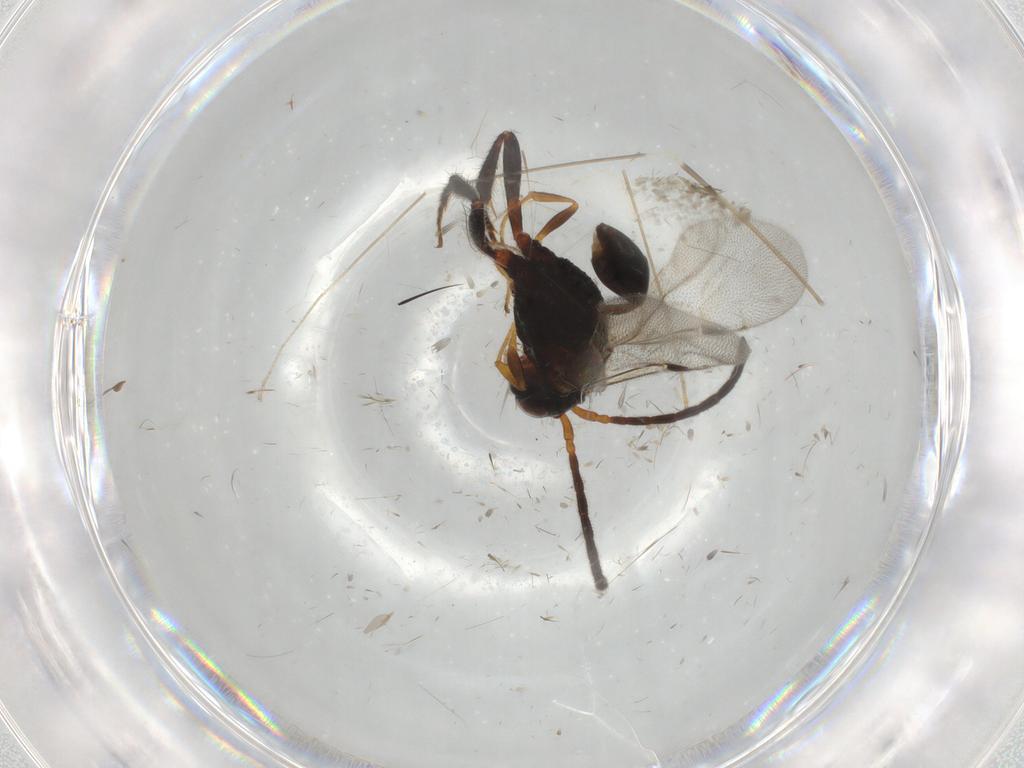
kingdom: Animalia
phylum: Arthropoda
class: Insecta
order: Hymenoptera
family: Evaniidae
